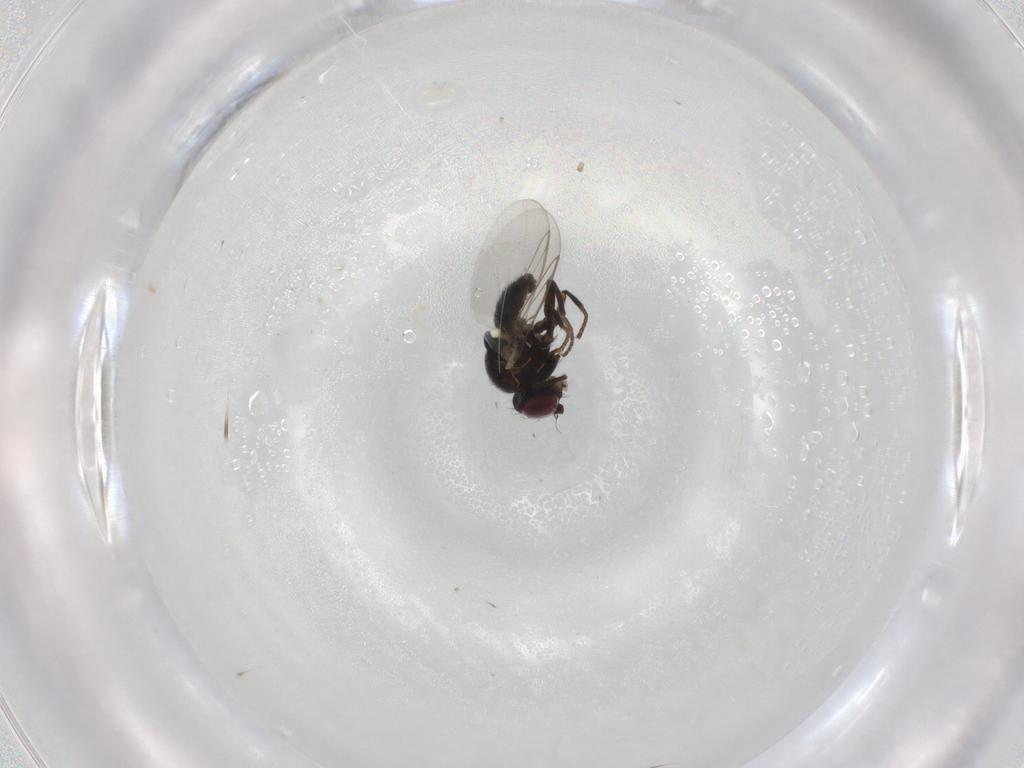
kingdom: Animalia
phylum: Arthropoda
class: Insecta
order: Diptera
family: Agromyzidae
